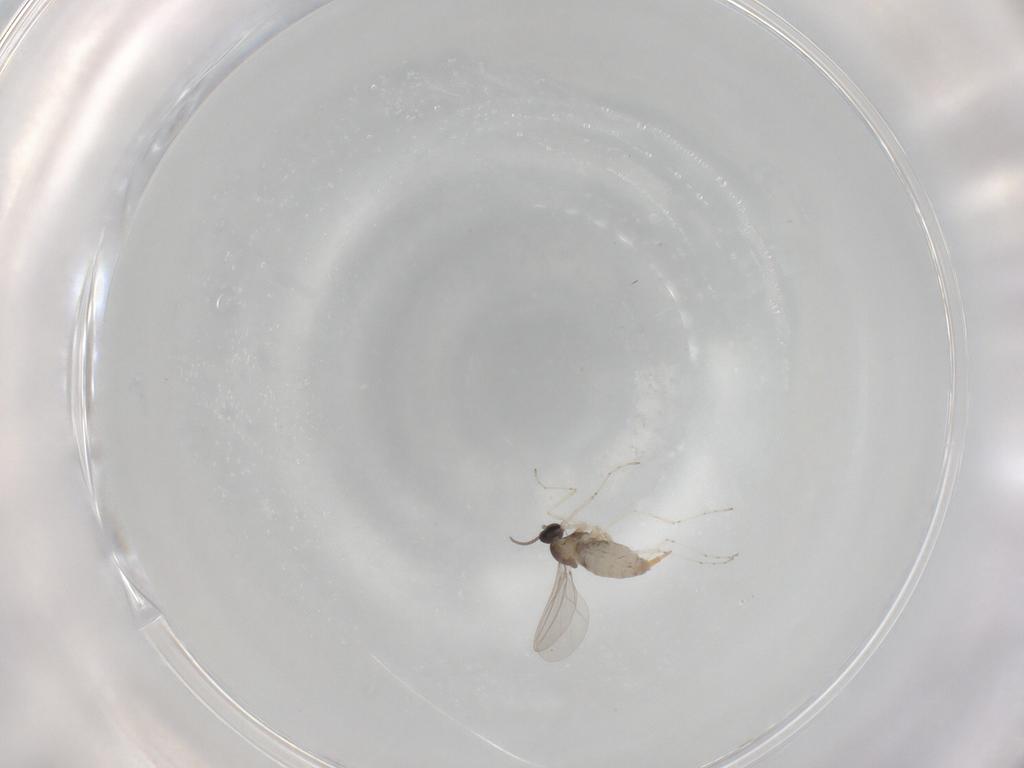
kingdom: Animalia
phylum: Arthropoda
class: Insecta
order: Diptera
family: Cecidomyiidae
